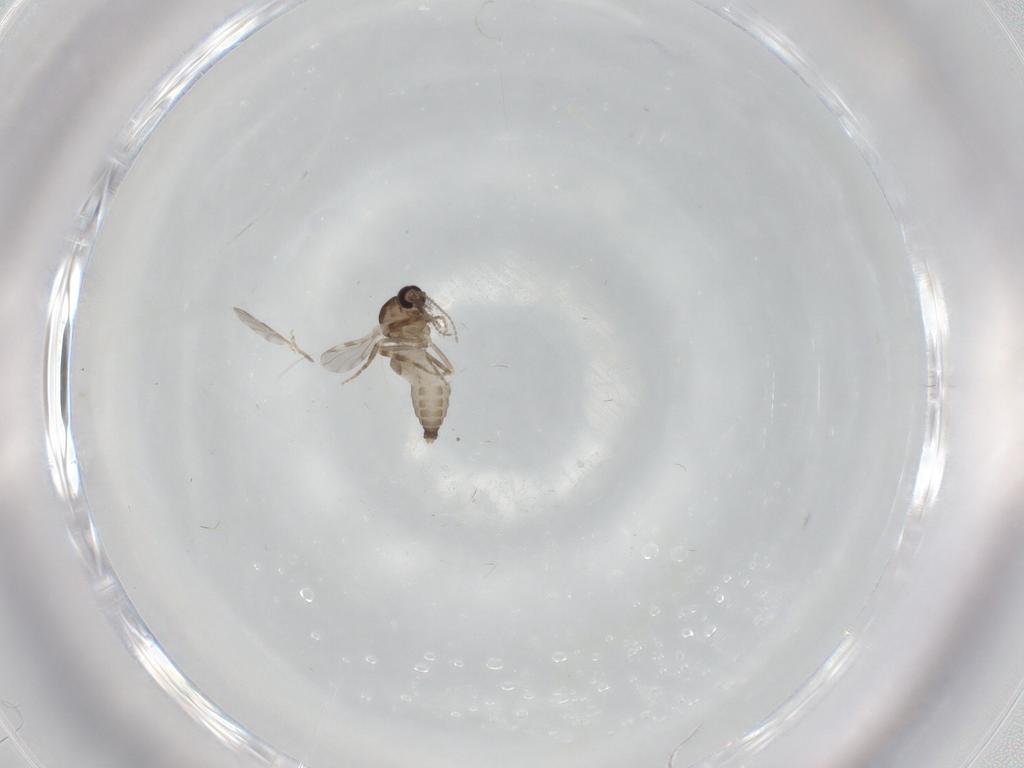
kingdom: Animalia
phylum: Arthropoda
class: Insecta
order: Diptera
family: Ceratopogonidae
